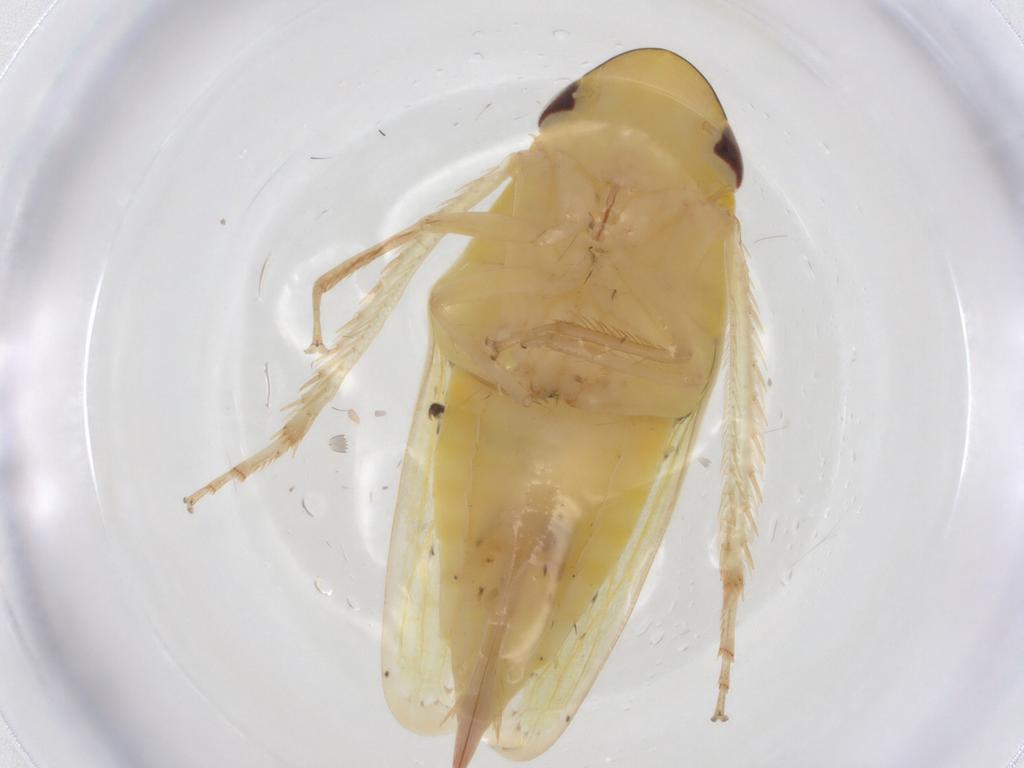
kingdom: Animalia
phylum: Arthropoda
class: Insecta
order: Hemiptera
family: Cicadellidae
